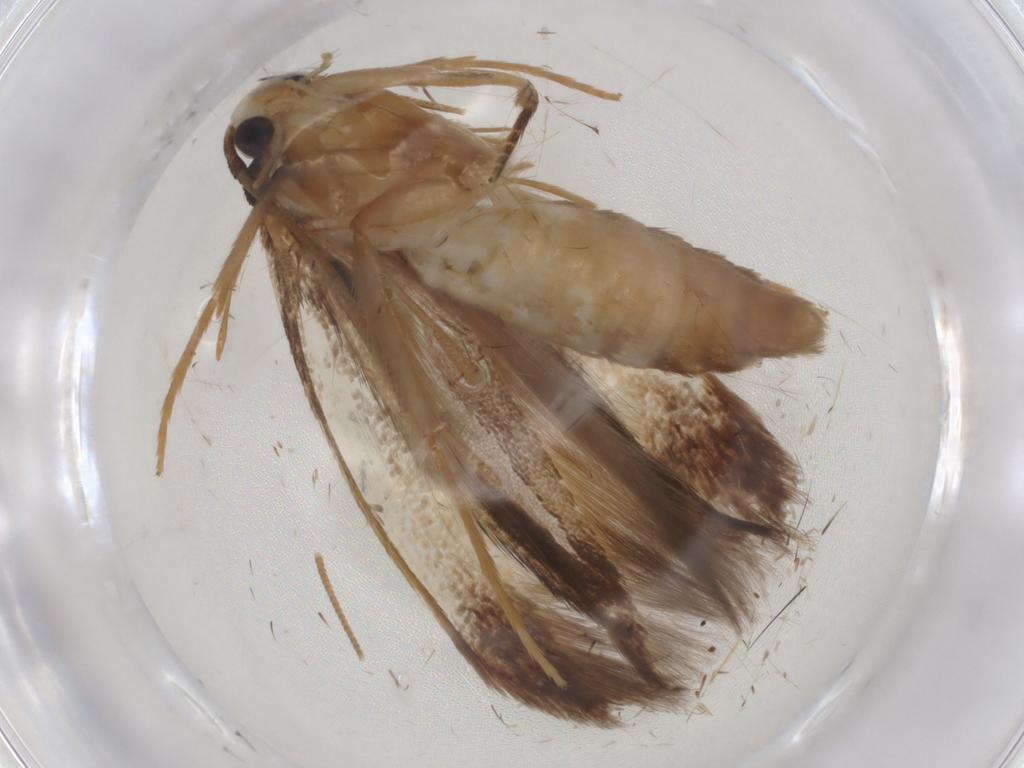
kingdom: Animalia
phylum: Arthropoda
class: Insecta
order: Lepidoptera
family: Tineidae
